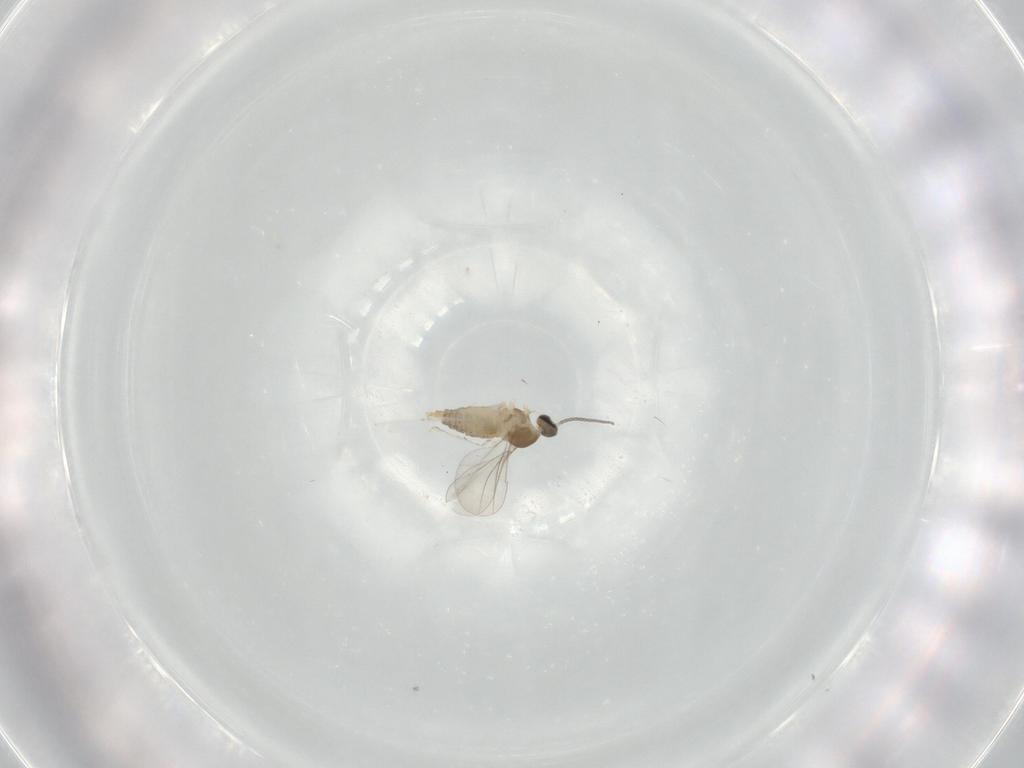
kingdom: Animalia
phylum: Arthropoda
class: Insecta
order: Diptera
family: Cecidomyiidae
